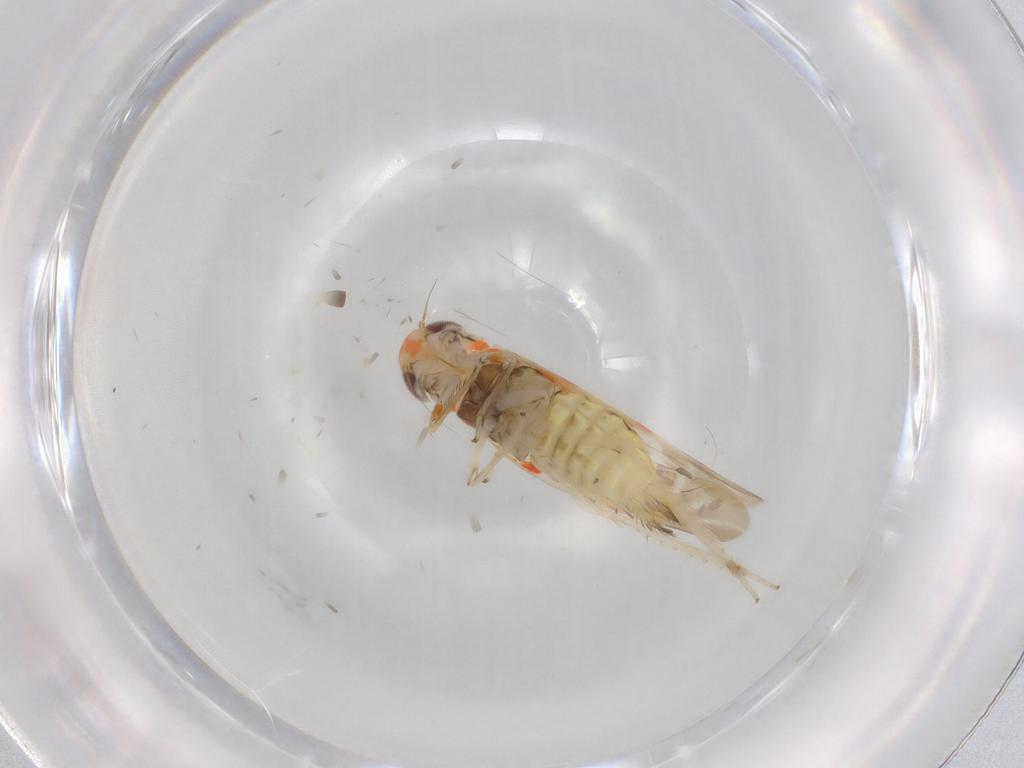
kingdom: Animalia
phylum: Arthropoda
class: Insecta
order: Hemiptera
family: Cicadellidae
